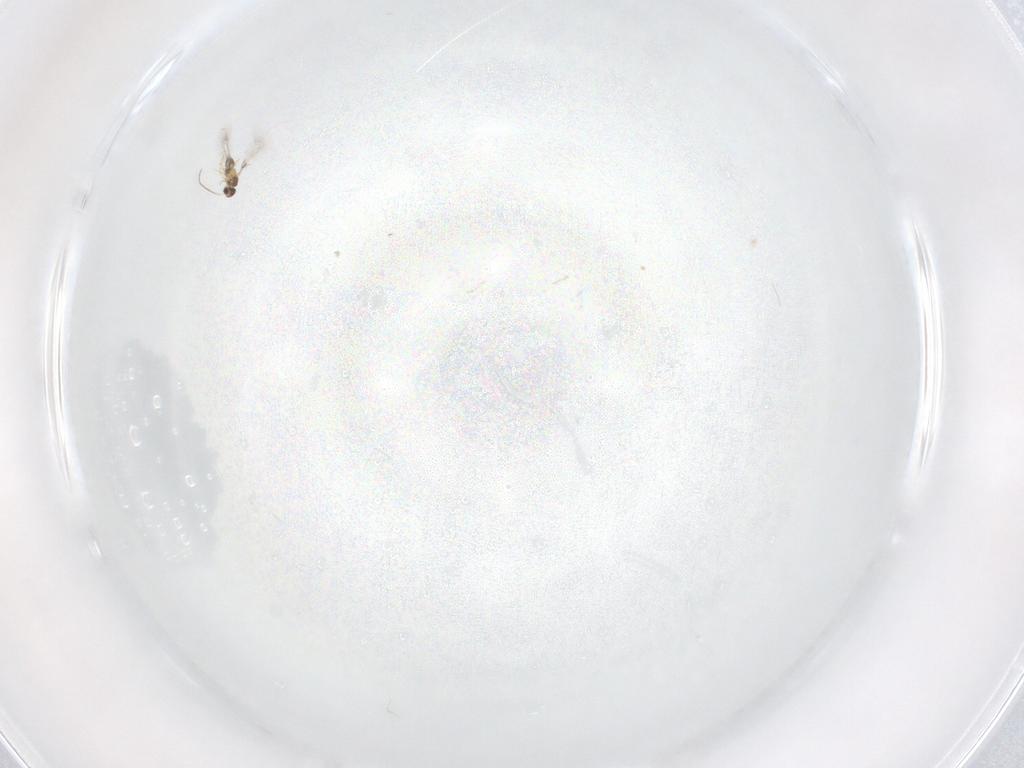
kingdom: Animalia
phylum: Arthropoda
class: Insecta
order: Hymenoptera
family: Mymaridae
